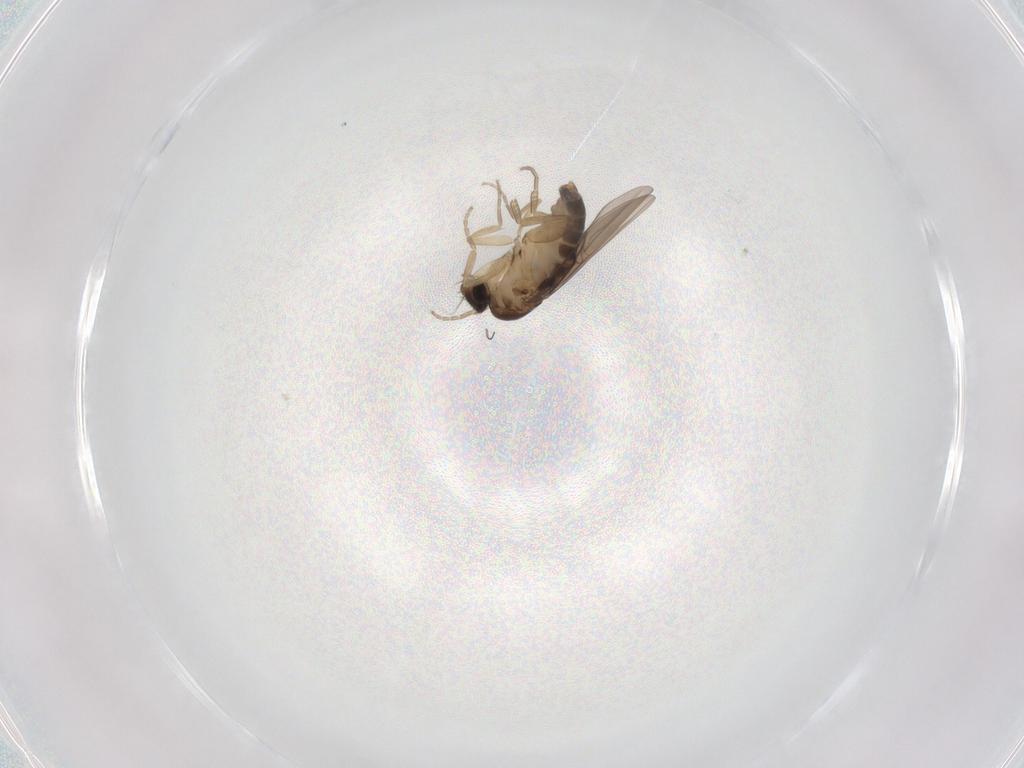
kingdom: Animalia
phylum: Arthropoda
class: Insecta
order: Diptera
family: Phoridae
